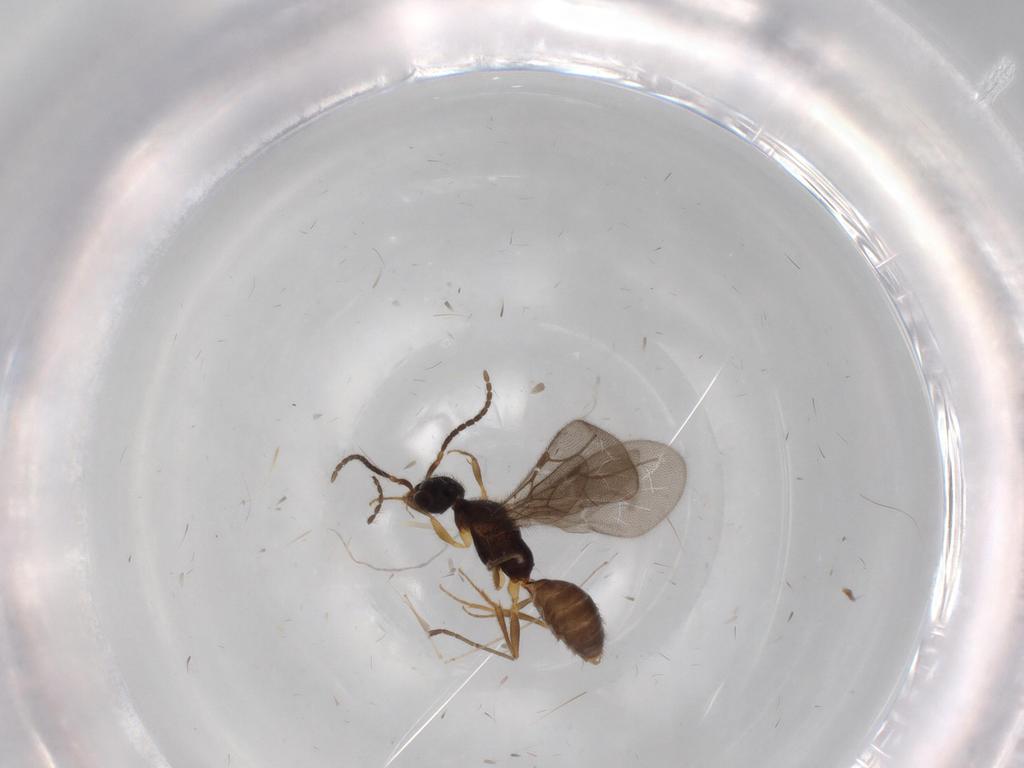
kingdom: Animalia
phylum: Arthropoda
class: Insecta
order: Hymenoptera
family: Bethylidae
